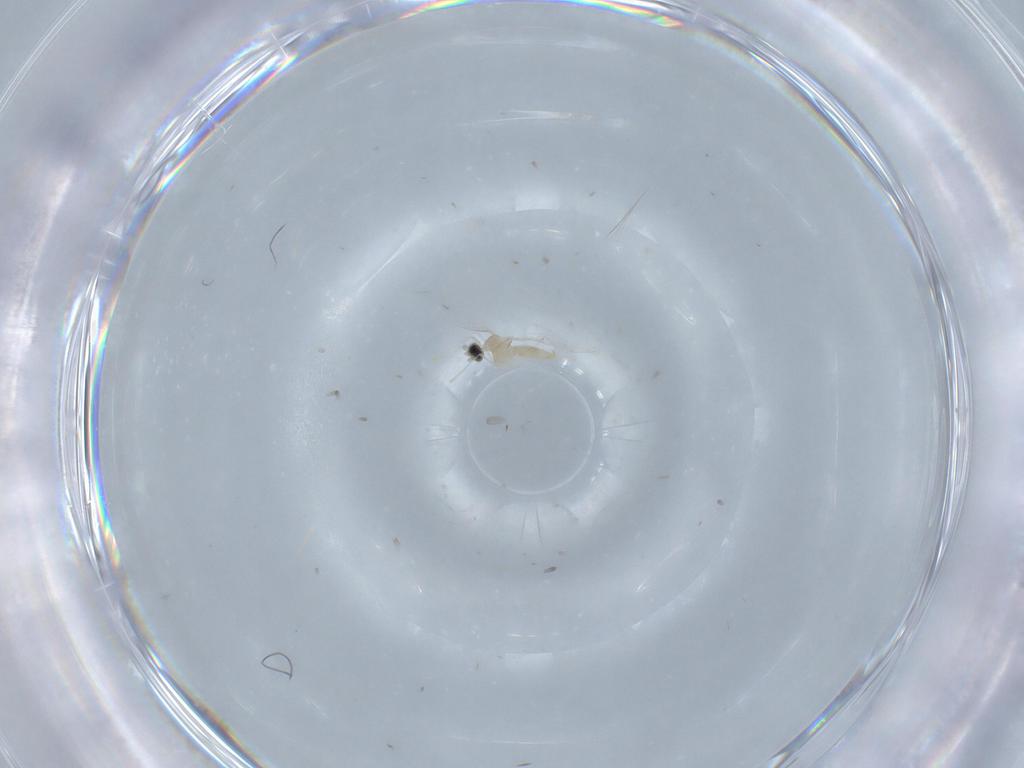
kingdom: Animalia
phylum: Arthropoda
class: Insecta
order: Diptera
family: Cecidomyiidae
